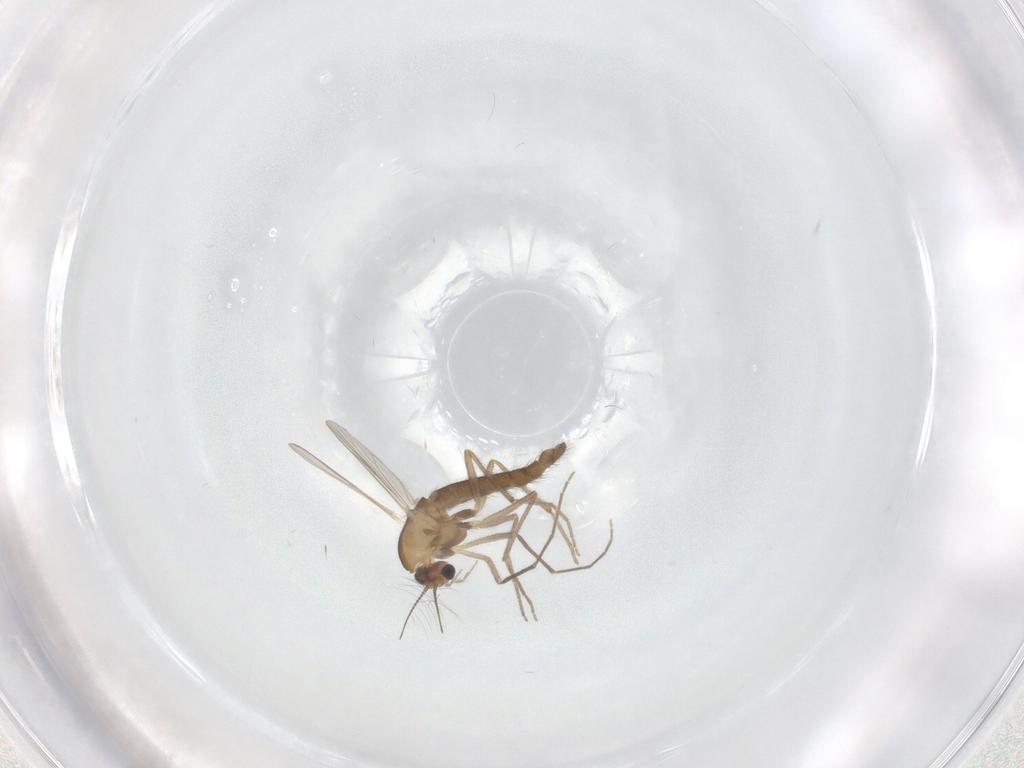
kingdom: Animalia
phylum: Arthropoda
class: Insecta
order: Diptera
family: Chironomidae
